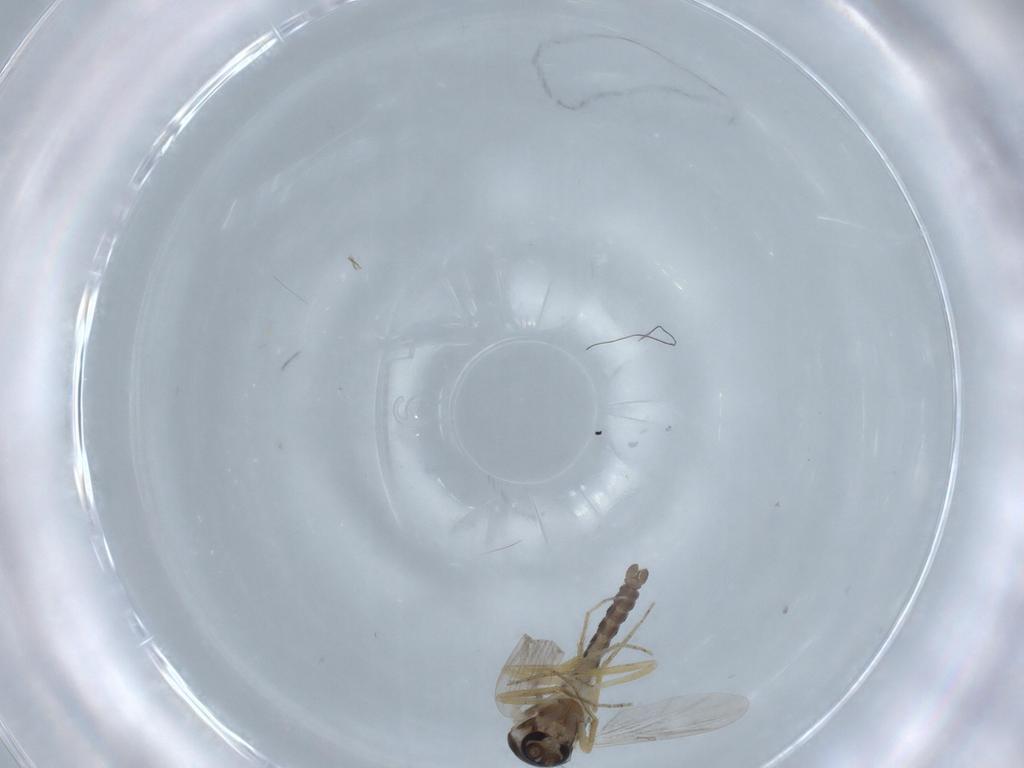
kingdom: Animalia
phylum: Arthropoda
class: Insecta
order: Diptera
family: Ceratopogonidae
